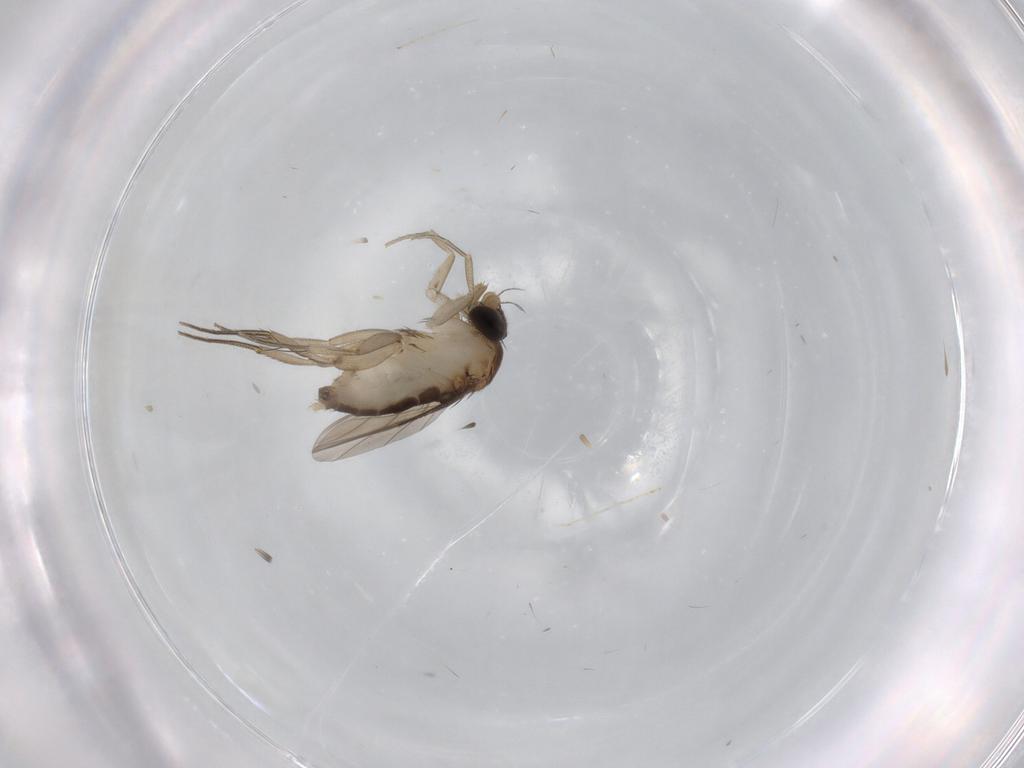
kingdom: Animalia
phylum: Arthropoda
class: Insecta
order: Diptera
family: Phoridae
